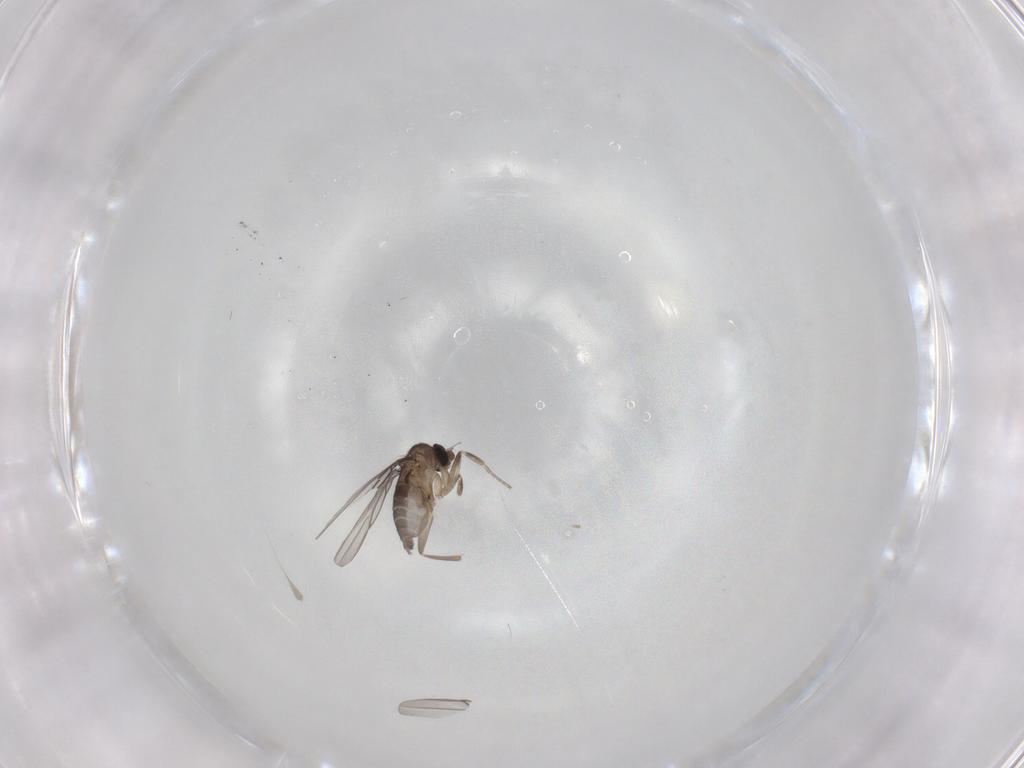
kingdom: Animalia
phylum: Arthropoda
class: Insecta
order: Diptera
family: Phoridae
